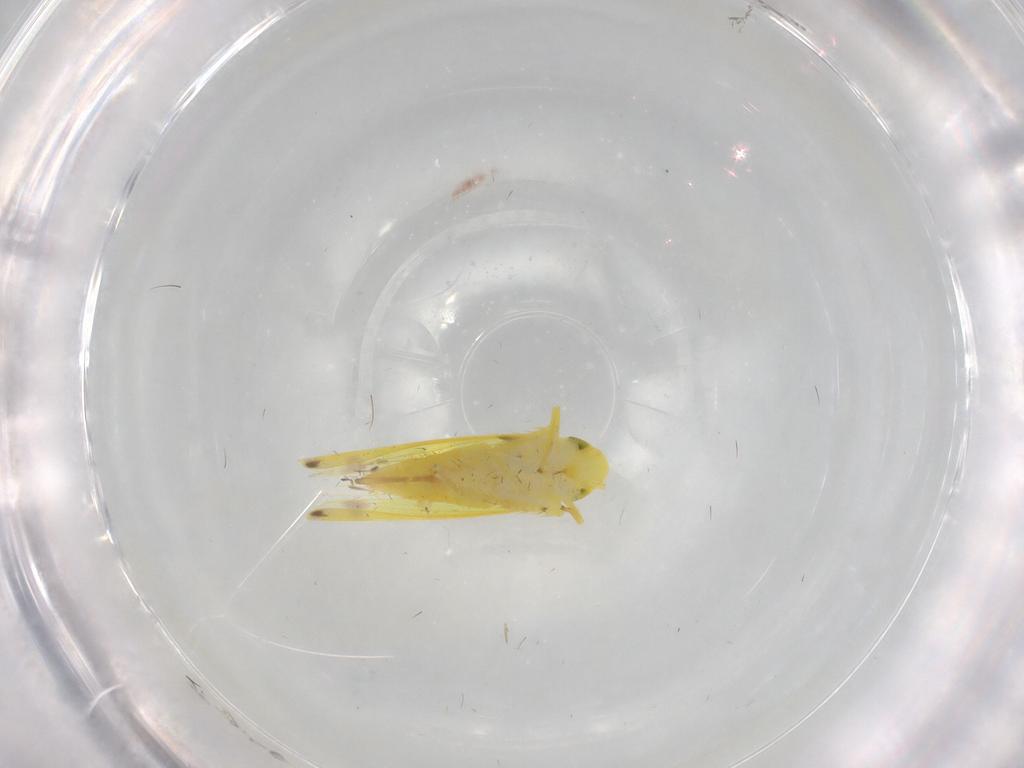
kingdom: Animalia
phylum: Arthropoda
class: Insecta
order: Hemiptera
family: Cicadellidae
